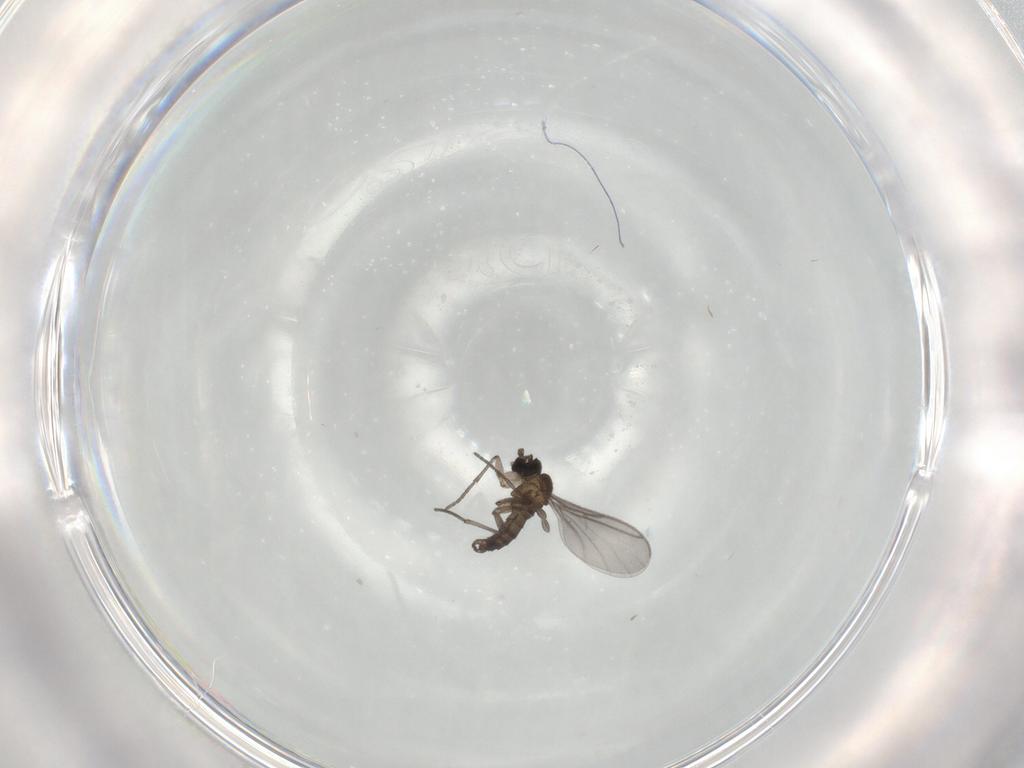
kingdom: Animalia
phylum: Arthropoda
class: Insecta
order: Diptera
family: Sciaridae
